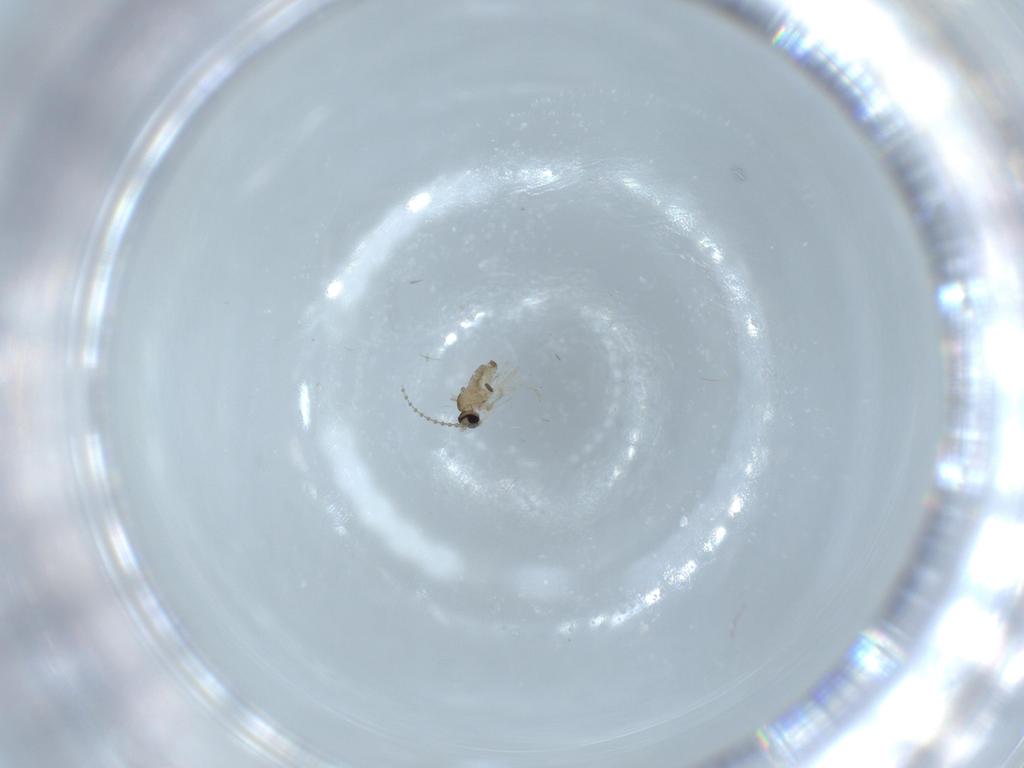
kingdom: Animalia
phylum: Arthropoda
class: Insecta
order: Diptera
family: Cecidomyiidae
